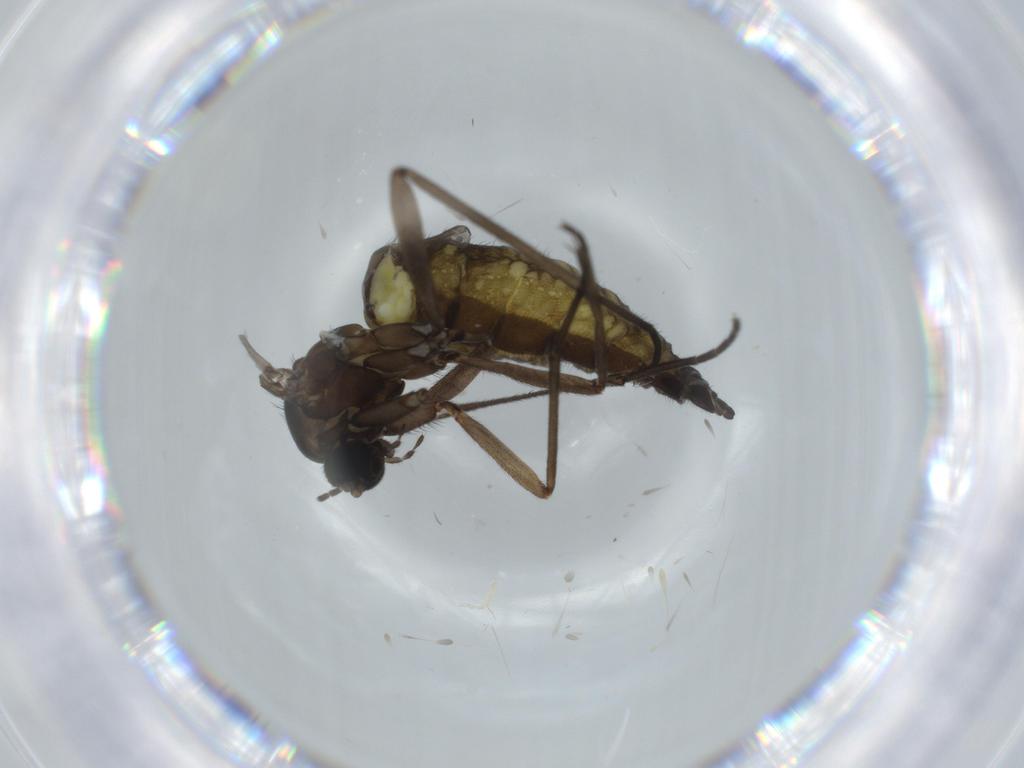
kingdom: Animalia
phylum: Arthropoda
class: Insecta
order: Diptera
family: Sciaridae
